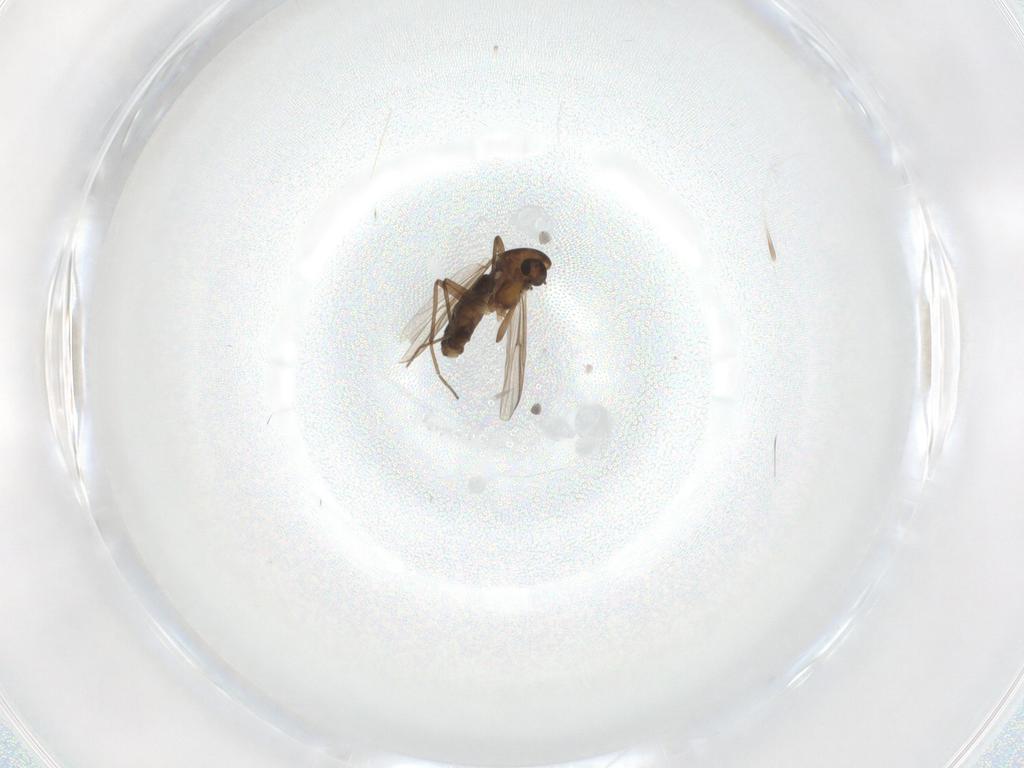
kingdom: Animalia
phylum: Arthropoda
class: Insecta
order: Diptera
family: Chironomidae
